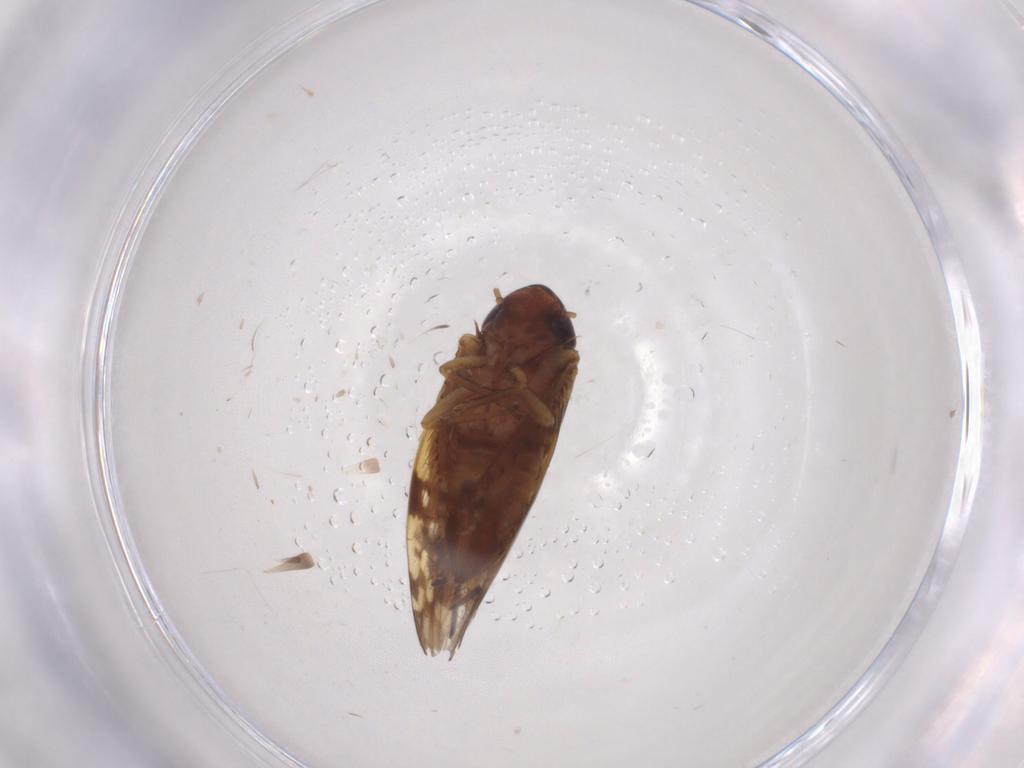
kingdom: Animalia
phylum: Arthropoda
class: Insecta
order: Hemiptera
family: Cicadellidae
